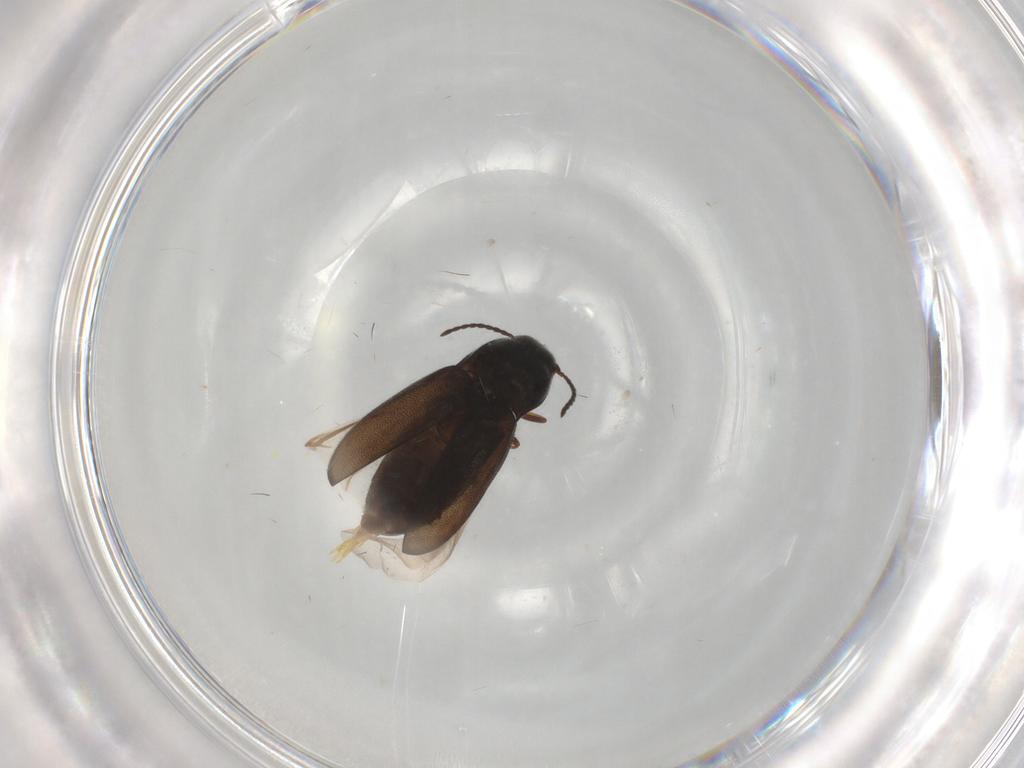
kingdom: Animalia
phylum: Arthropoda
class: Insecta
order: Coleoptera
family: Elateridae
